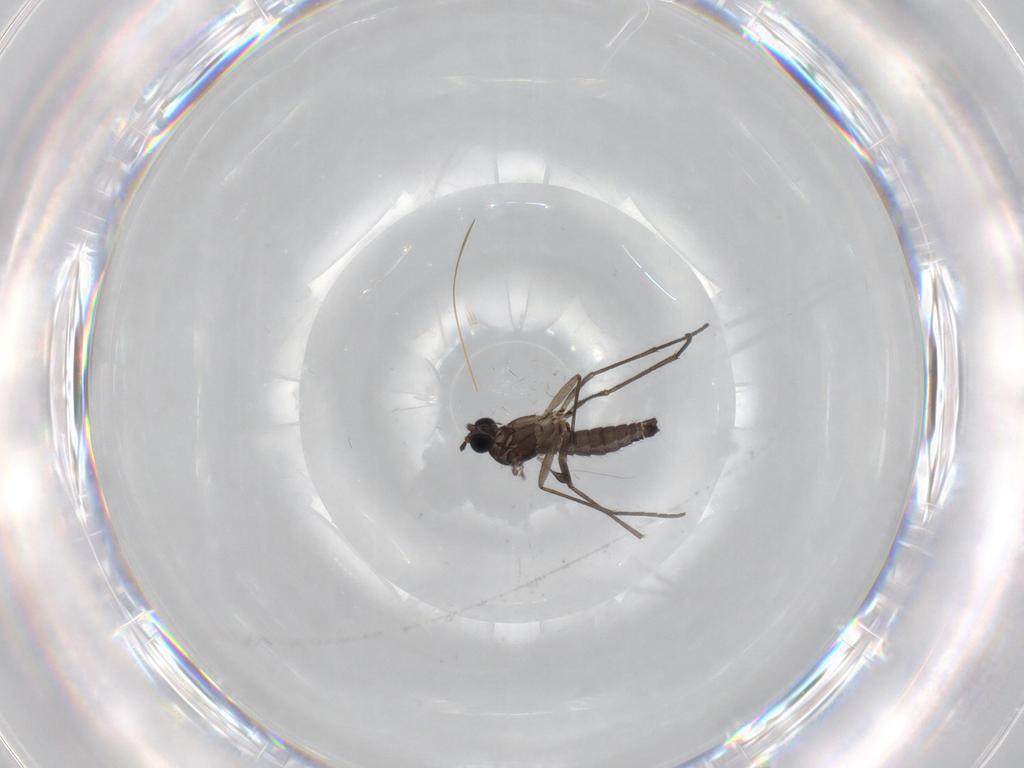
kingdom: Animalia
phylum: Arthropoda
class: Insecta
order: Diptera
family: Sciaridae
